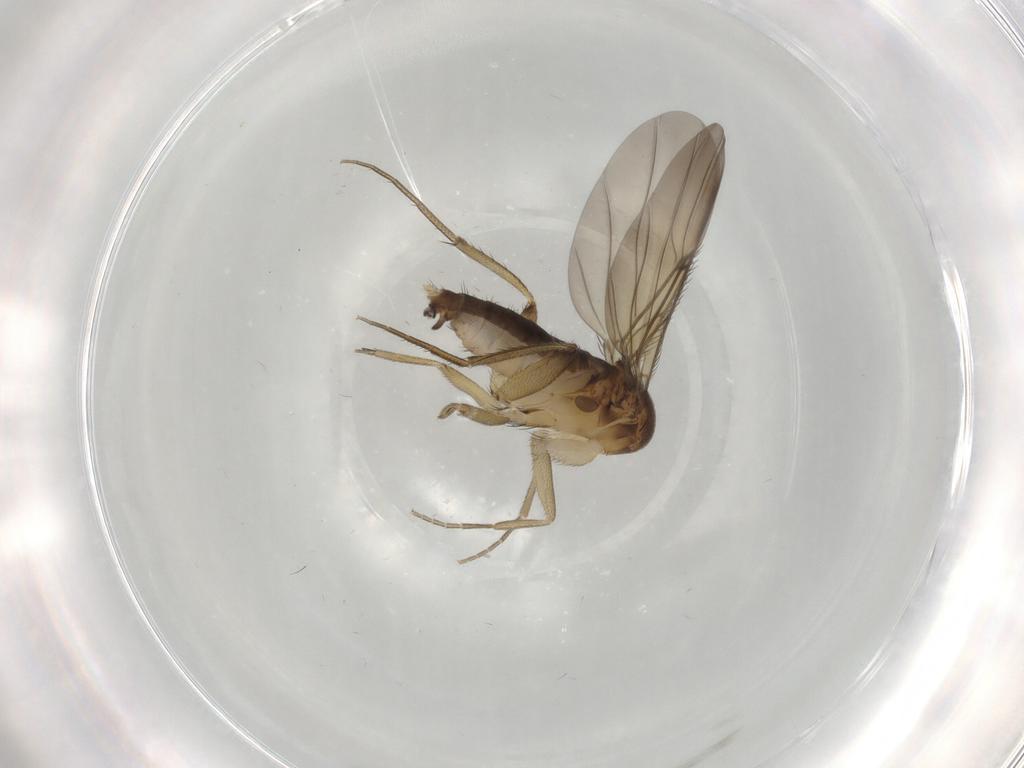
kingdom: Animalia
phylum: Arthropoda
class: Insecta
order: Diptera
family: Phoridae
